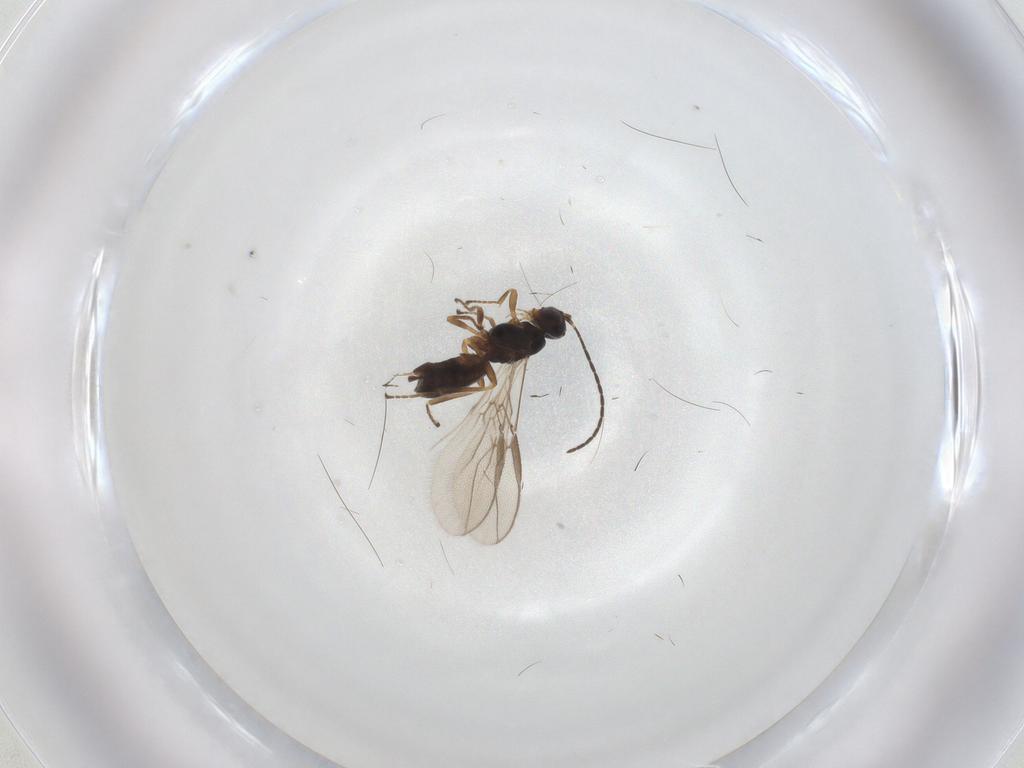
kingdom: Animalia
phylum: Arthropoda
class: Insecta
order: Hymenoptera
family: Braconidae
